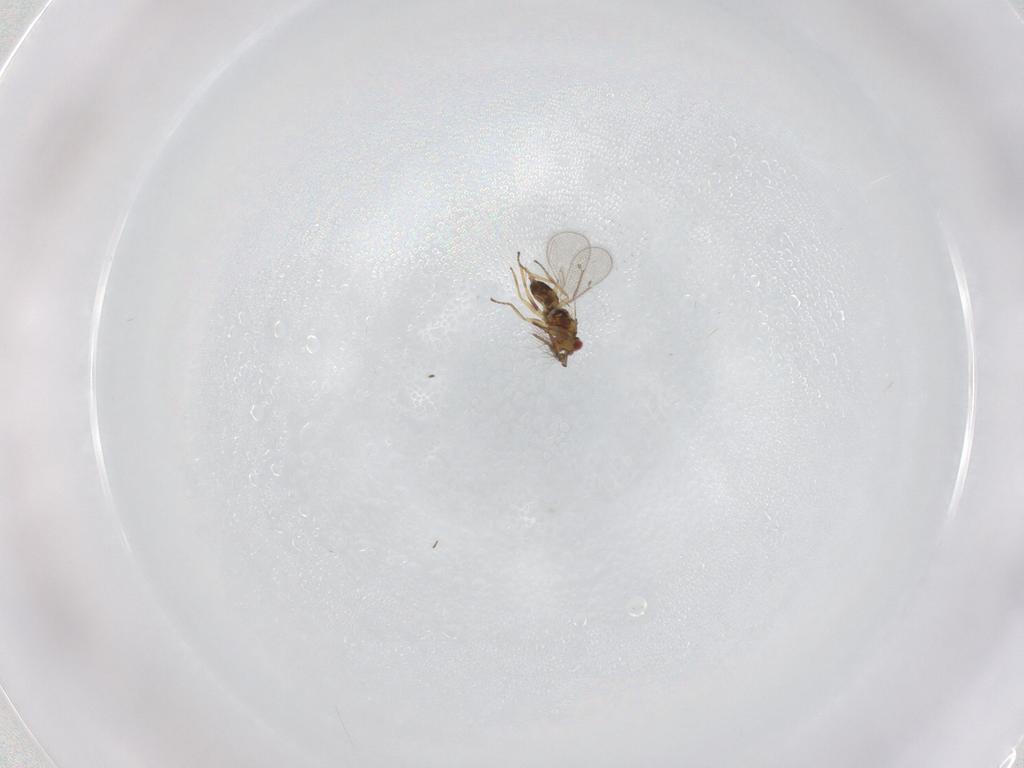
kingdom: Animalia
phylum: Arthropoda
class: Insecta
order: Hymenoptera
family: Eulophidae
